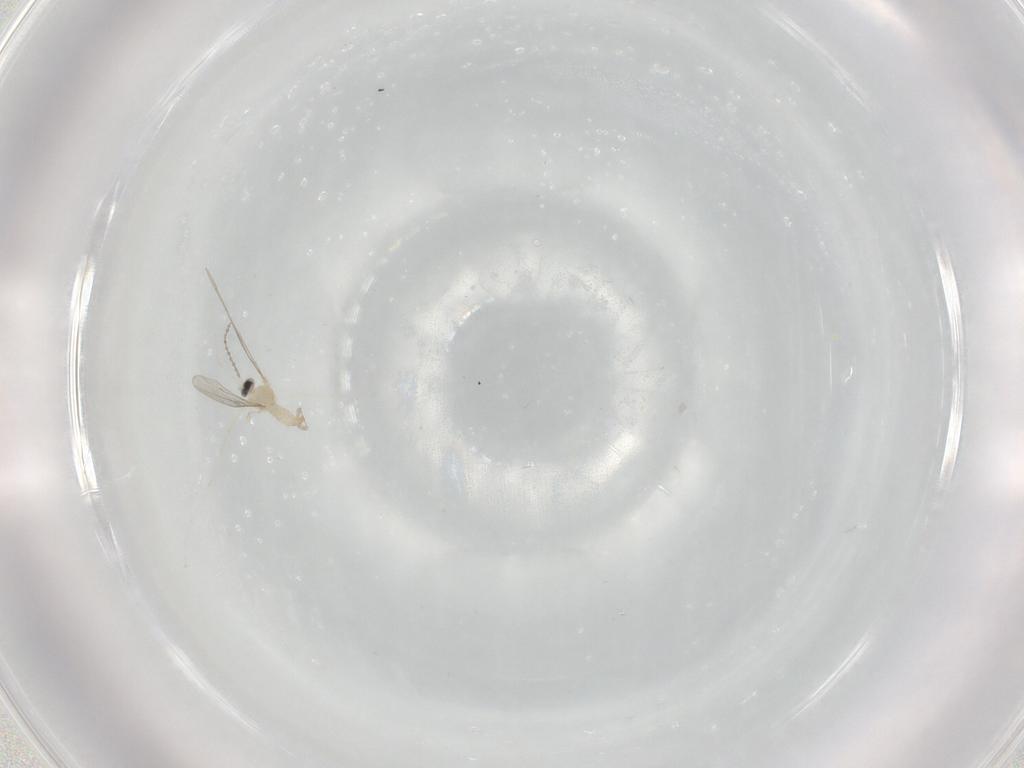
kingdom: Animalia
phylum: Arthropoda
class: Insecta
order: Diptera
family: Cecidomyiidae
